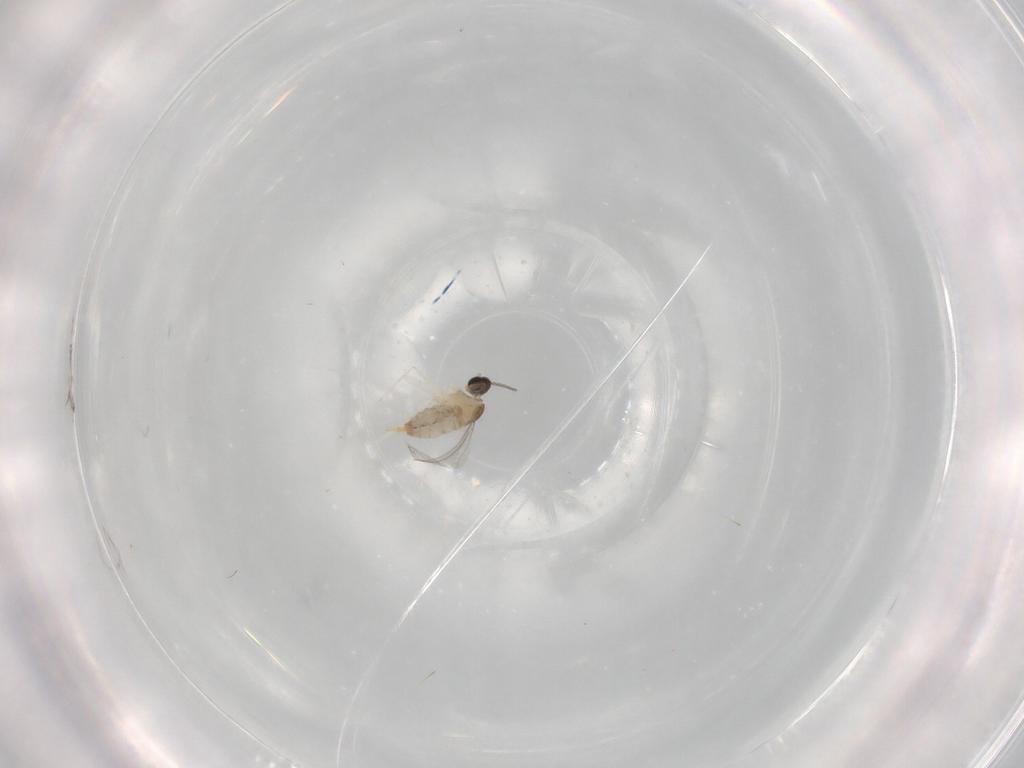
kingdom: Animalia
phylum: Arthropoda
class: Insecta
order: Diptera
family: Cecidomyiidae
